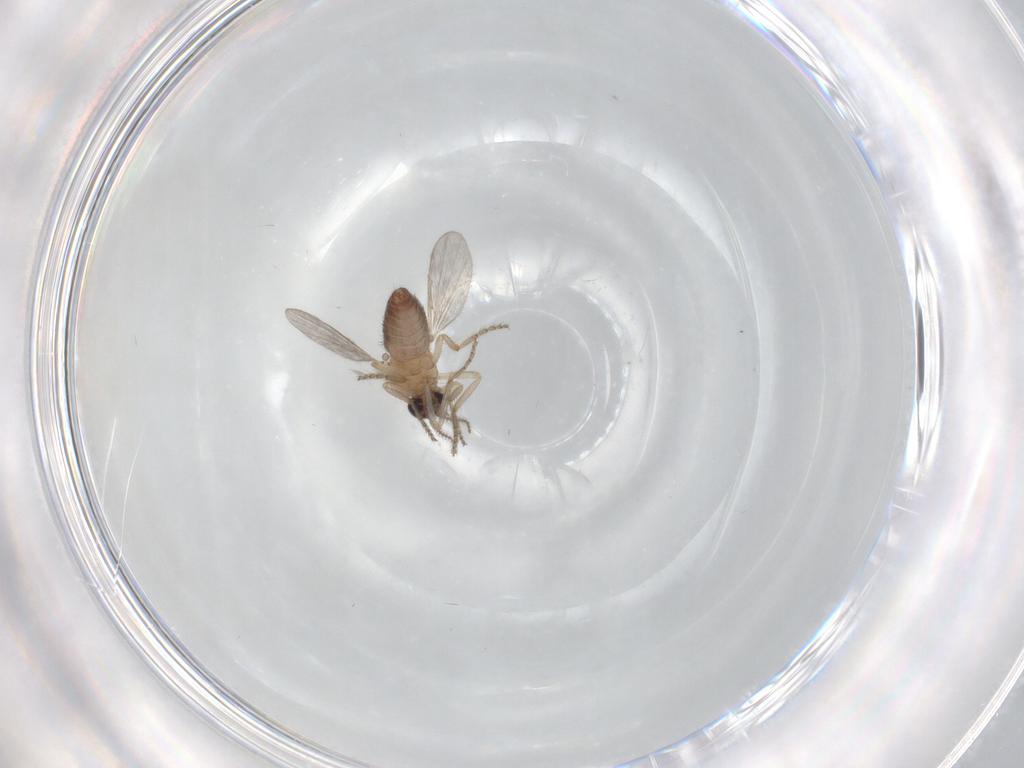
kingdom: Animalia
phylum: Arthropoda
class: Insecta
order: Diptera
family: Ceratopogonidae
